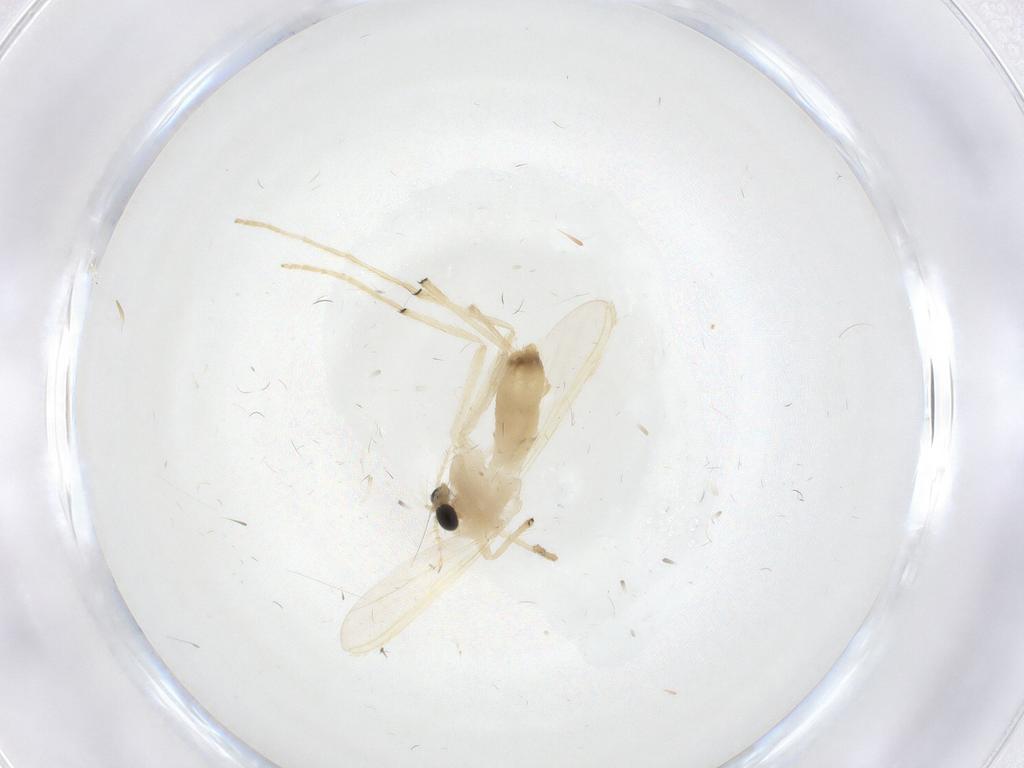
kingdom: Animalia
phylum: Arthropoda
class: Insecta
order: Diptera
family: Chironomidae
